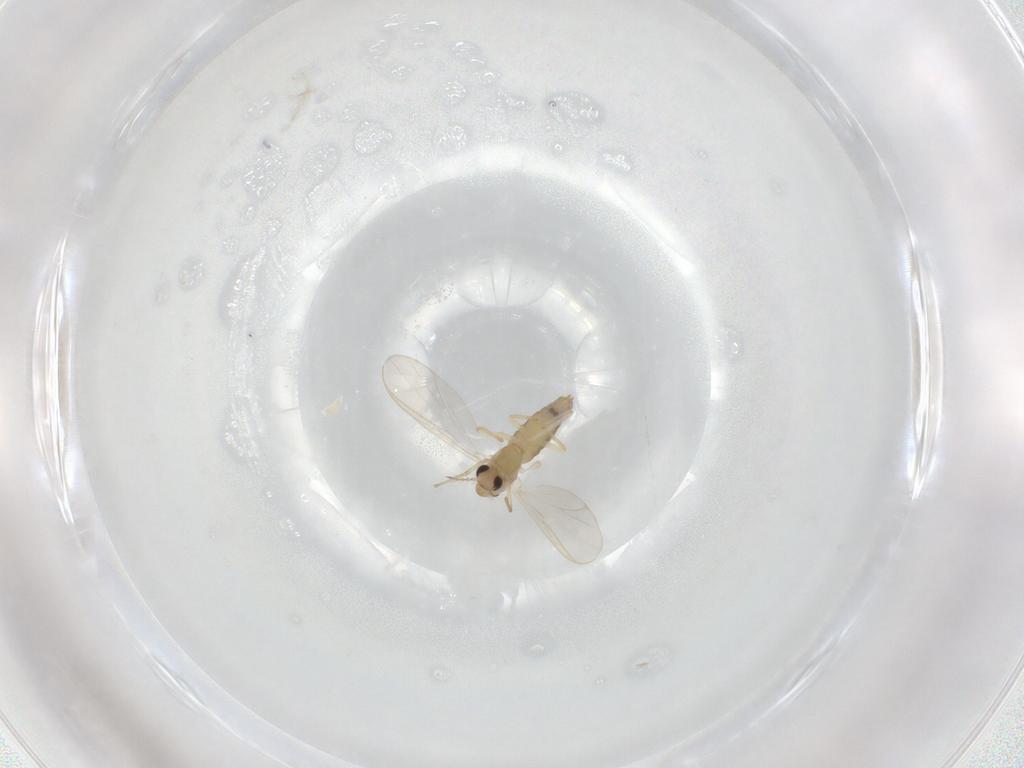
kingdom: Animalia
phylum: Arthropoda
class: Insecta
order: Diptera
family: Chironomidae
